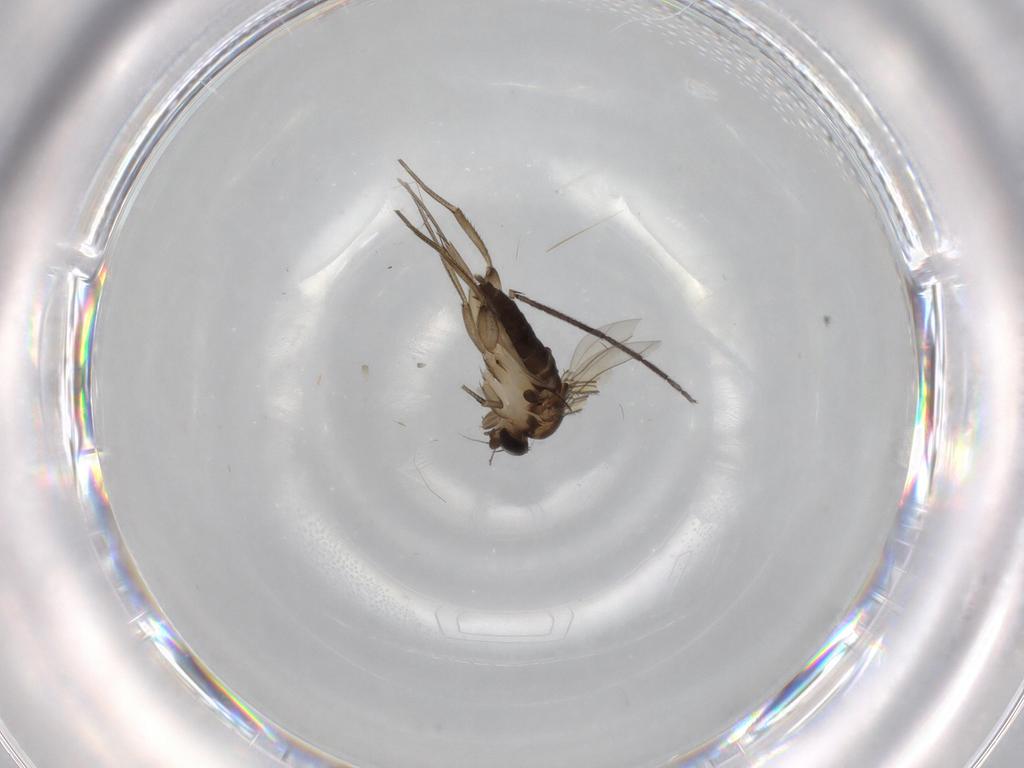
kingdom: Animalia
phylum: Arthropoda
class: Insecta
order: Diptera
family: Phoridae
